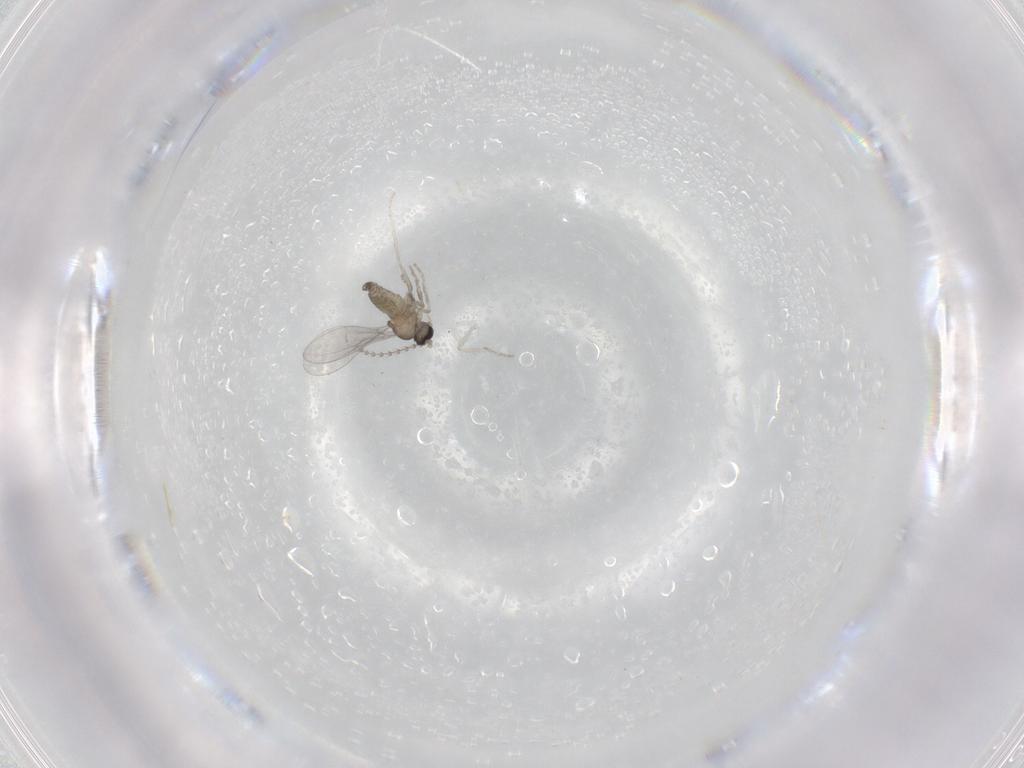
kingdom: Animalia
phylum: Arthropoda
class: Insecta
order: Diptera
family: Cecidomyiidae
